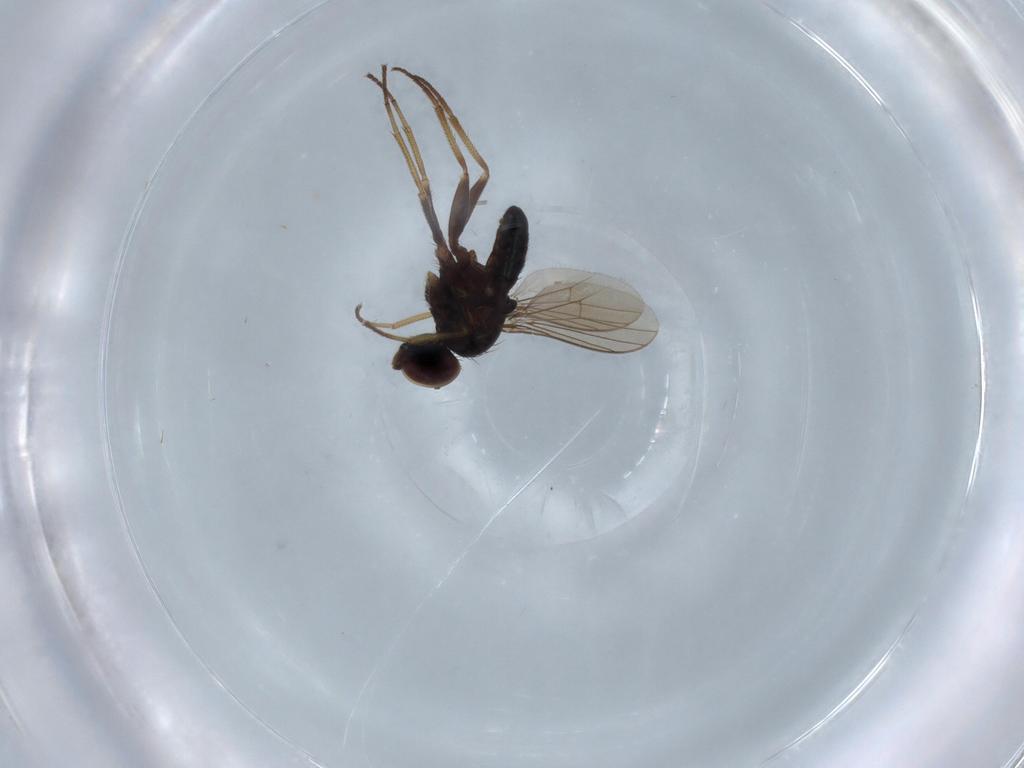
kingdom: Animalia
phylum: Arthropoda
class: Insecta
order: Diptera
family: Dolichopodidae
